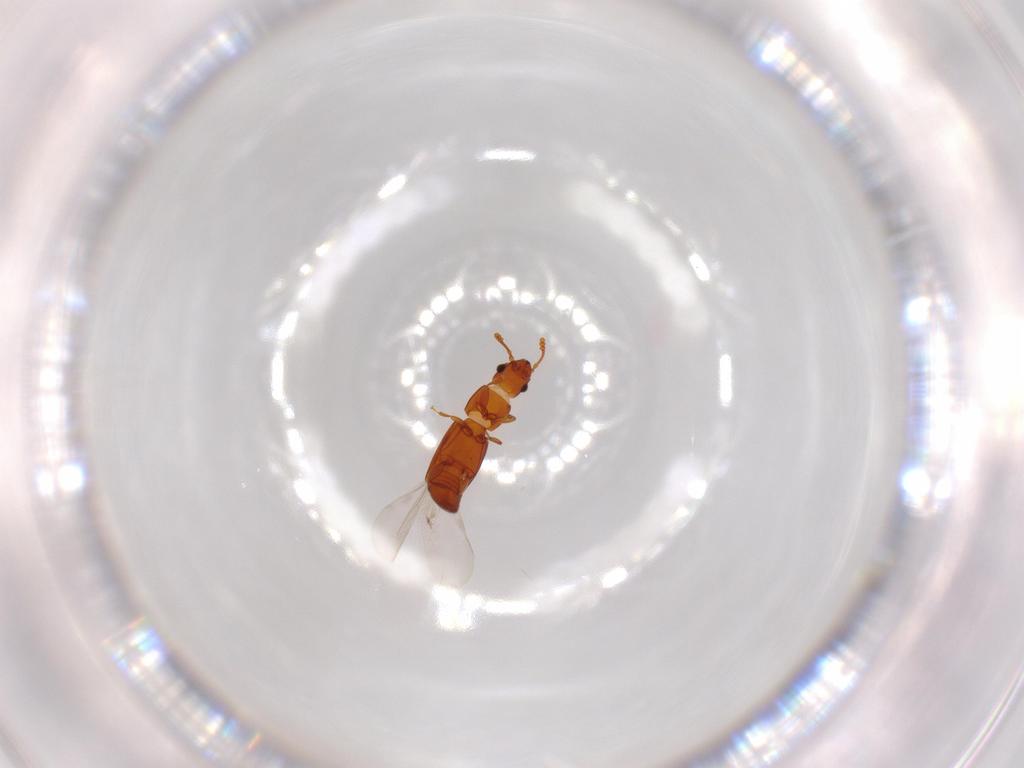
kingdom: Animalia
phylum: Arthropoda
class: Insecta
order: Coleoptera
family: Smicripidae
